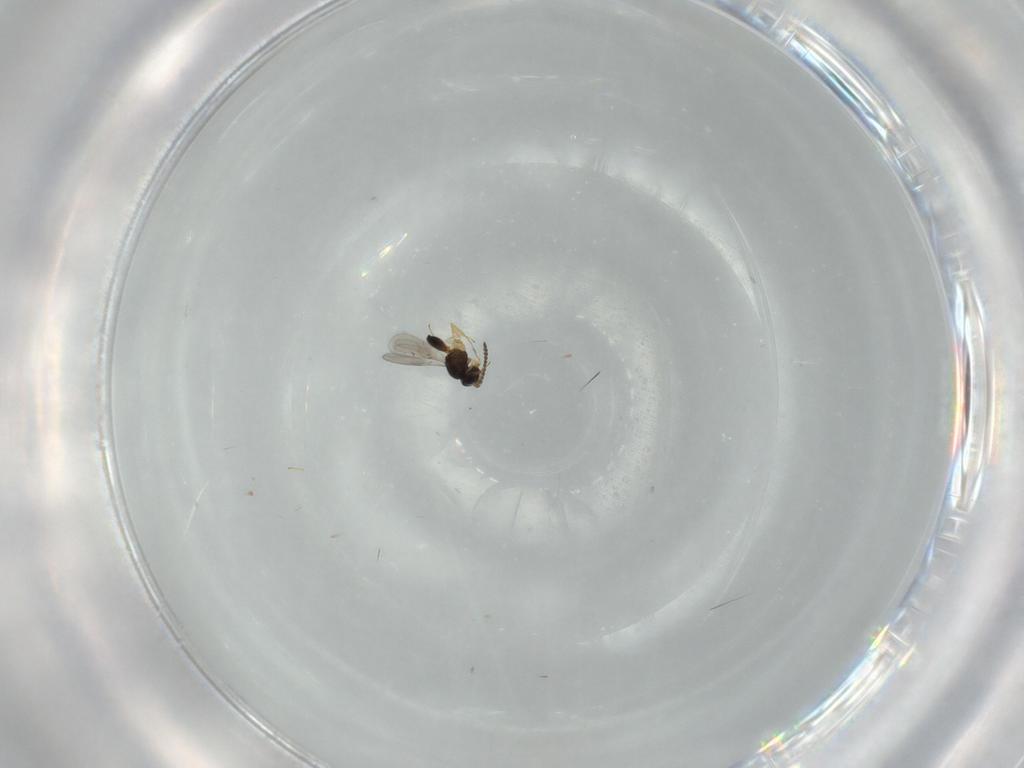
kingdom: Animalia
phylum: Arthropoda
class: Insecta
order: Hymenoptera
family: Scelionidae
